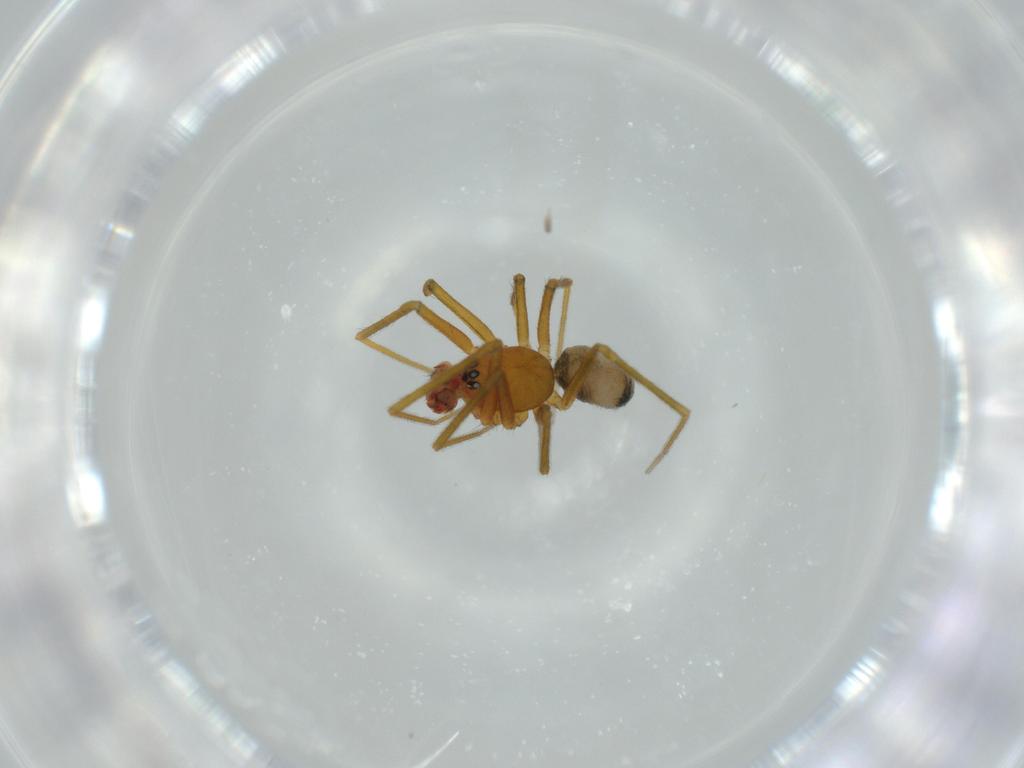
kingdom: Animalia
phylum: Arthropoda
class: Arachnida
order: Araneae
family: Linyphiidae
